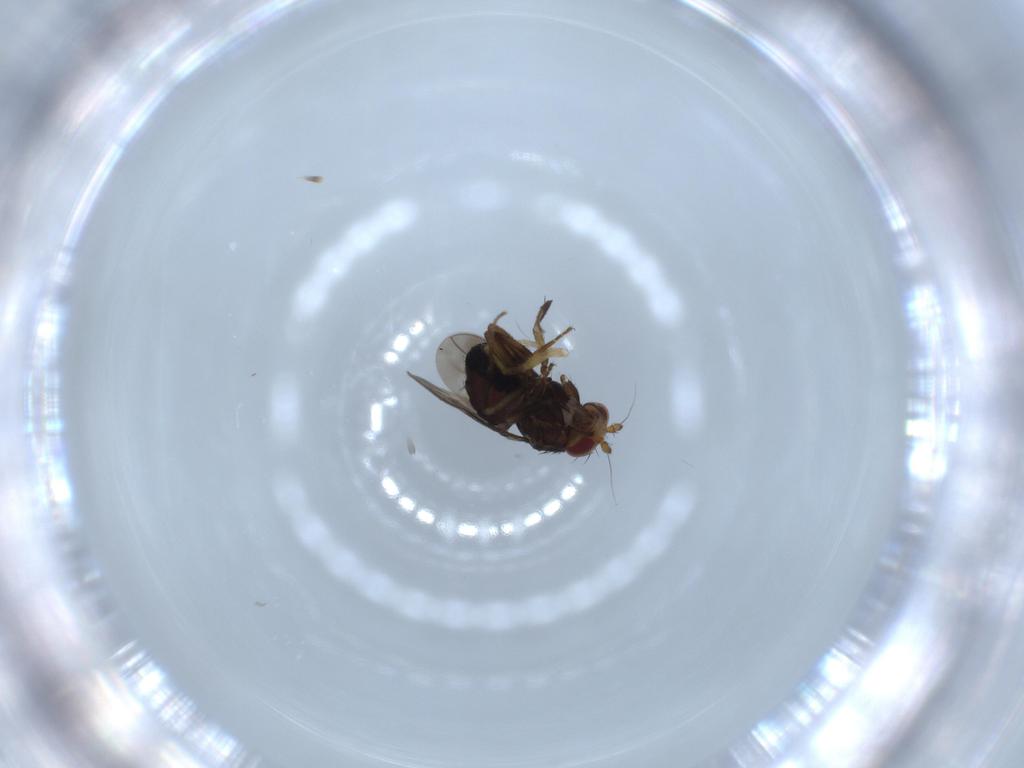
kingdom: Animalia
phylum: Arthropoda
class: Insecta
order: Diptera
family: Sphaeroceridae
